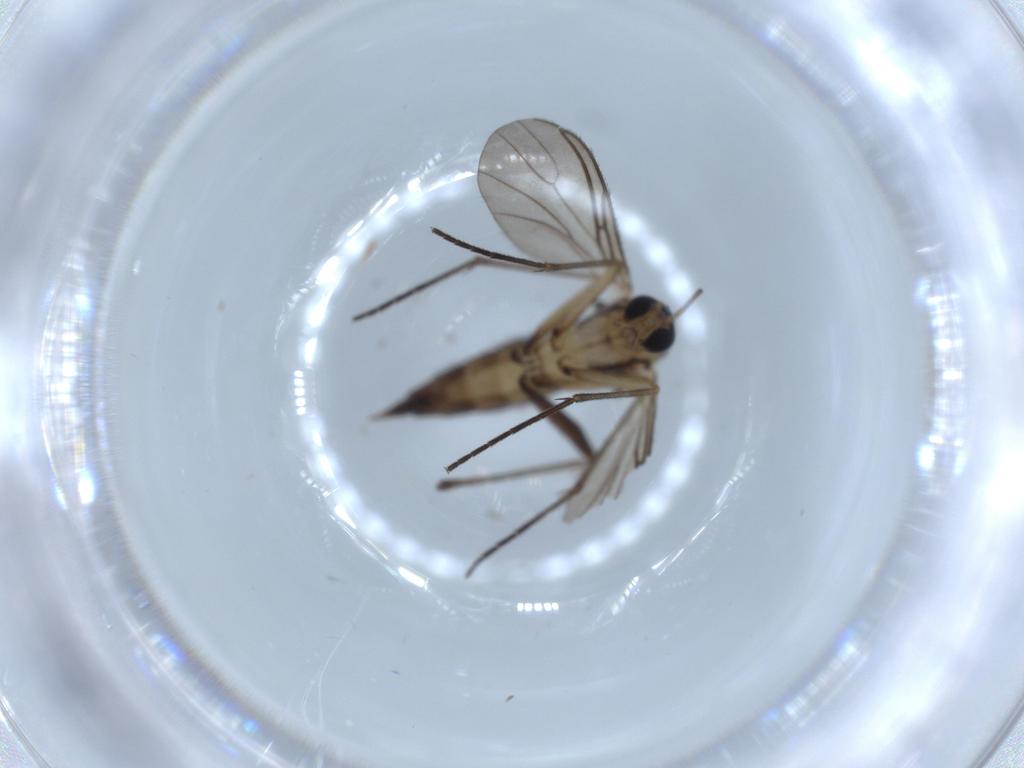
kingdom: Animalia
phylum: Arthropoda
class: Insecta
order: Diptera
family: Sciaridae
